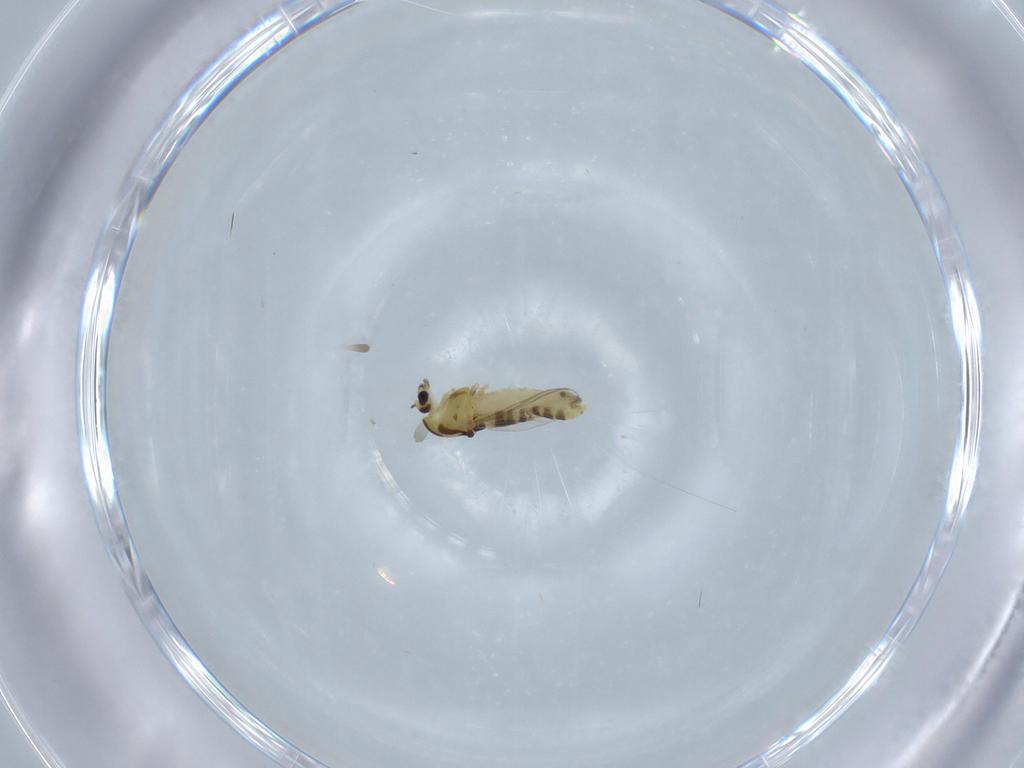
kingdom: Animalia
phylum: Arthropoda
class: Insecta
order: Diptera
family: Chironomidae
